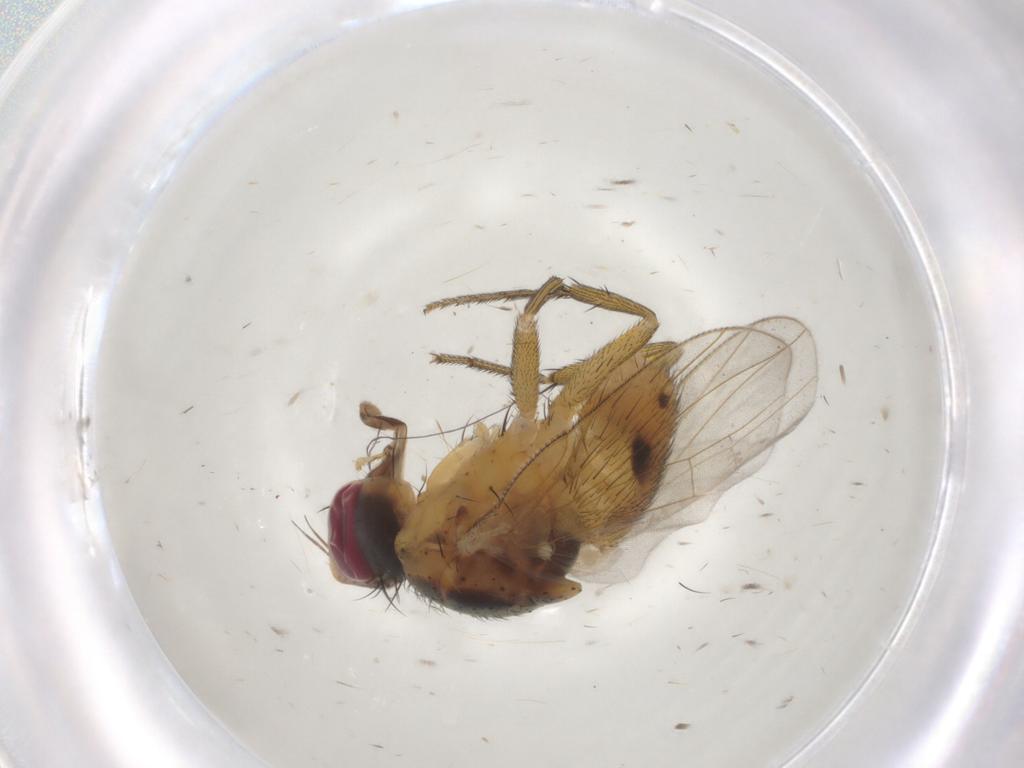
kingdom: Animalia
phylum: Arthropoda
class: Insecta
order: Diptera
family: Muscidae
